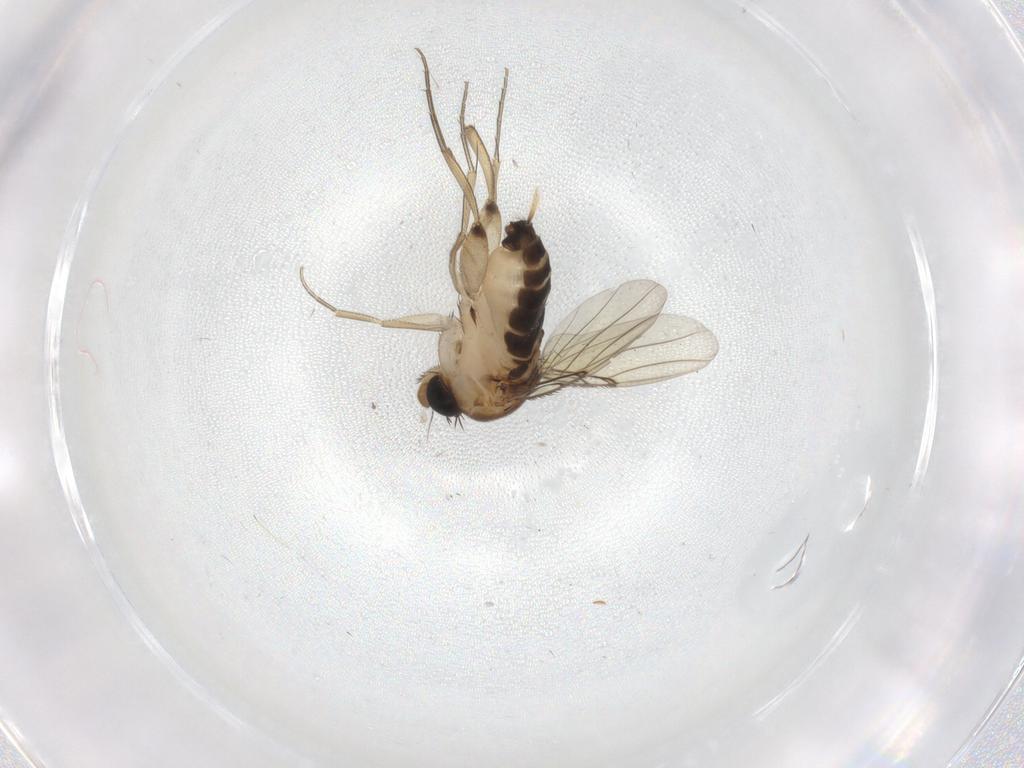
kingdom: Animalia
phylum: Arthropoda
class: Insecta
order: Diptera
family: Phoridae
